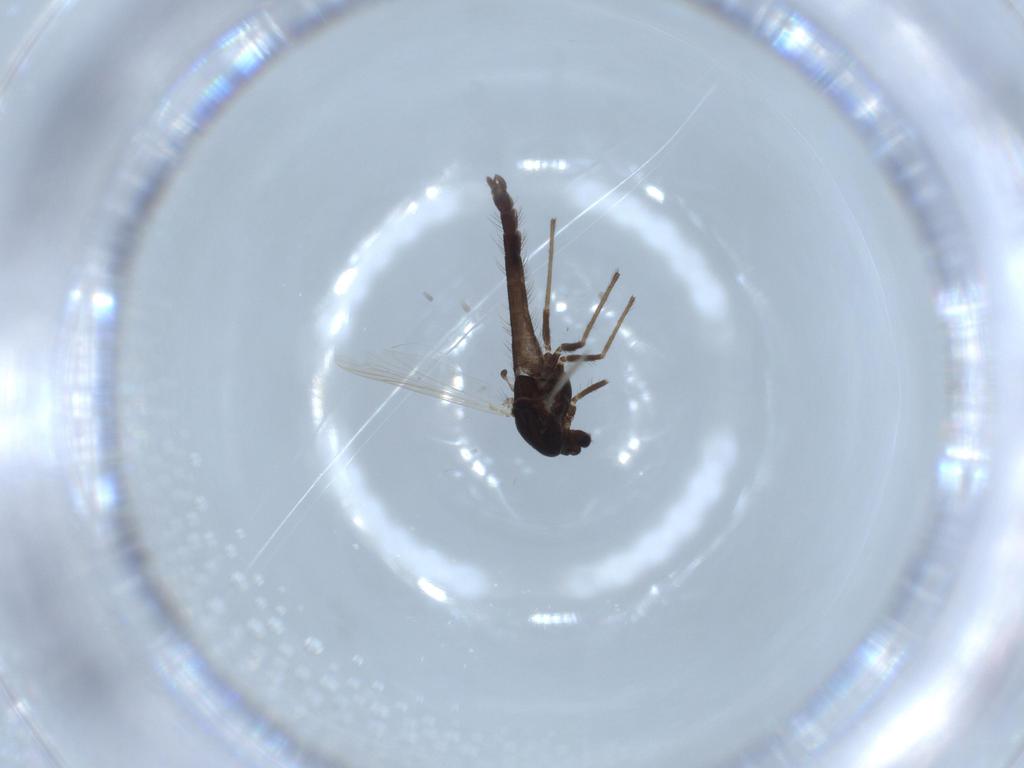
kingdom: Animalia
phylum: Arthropoda
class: Insecta
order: Diptera
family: Chironomidae
